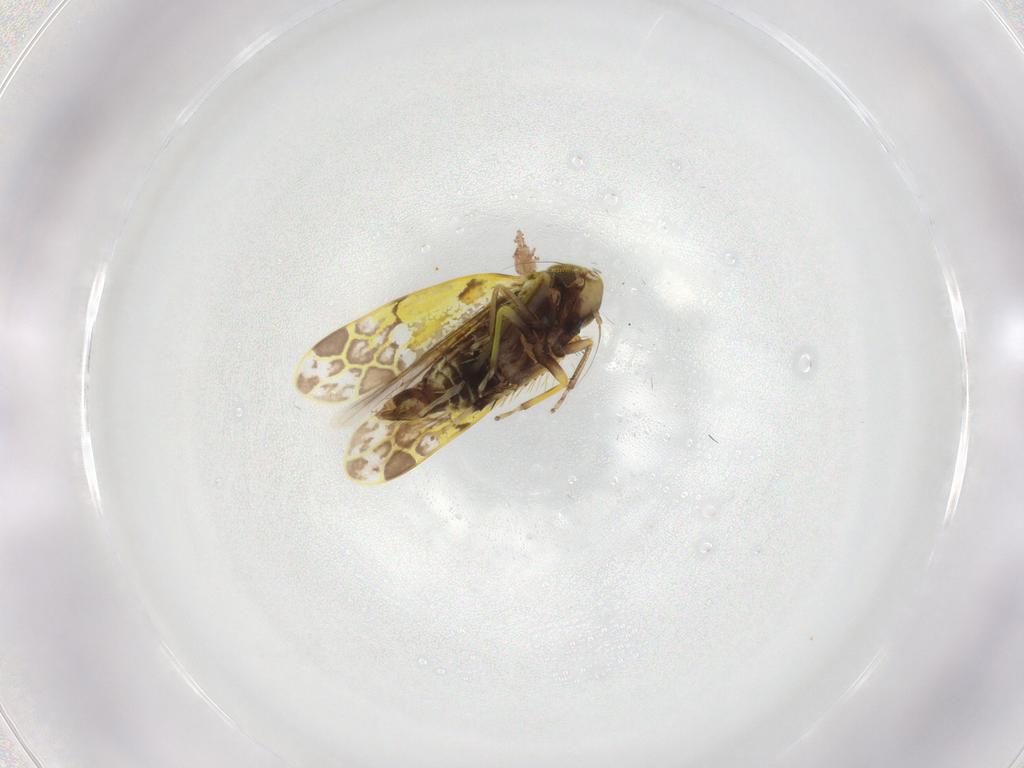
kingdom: Animalia
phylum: Arthropoda
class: Insecta
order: Hemiptera
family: Cicadellidae
